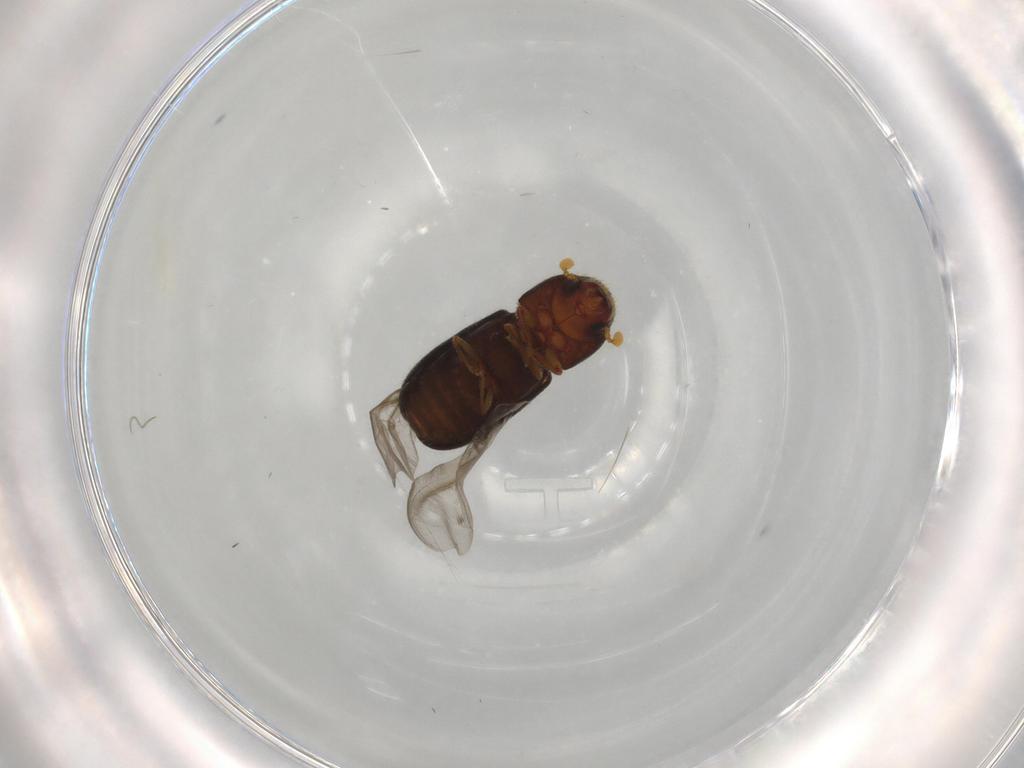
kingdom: Animalia
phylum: Arthropoda
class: Insecta
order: Coleoptera
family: Curculionidae
